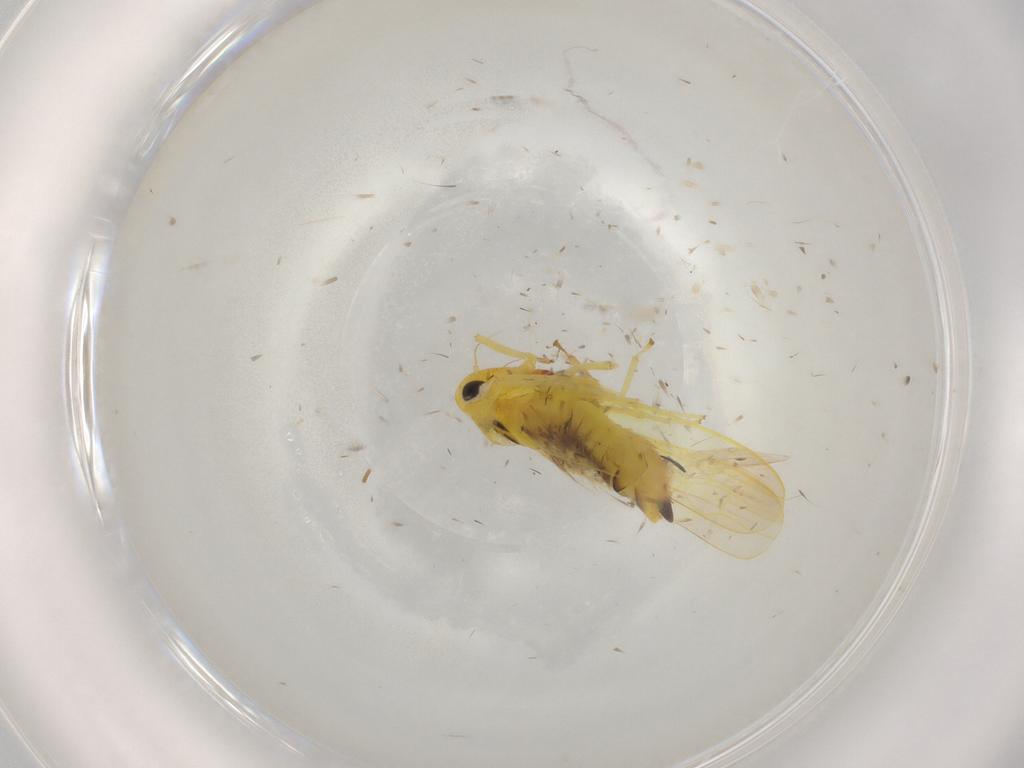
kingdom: Animalia
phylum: Arthropoda
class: Insecta
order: Hemiptera
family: Cicadellidae
